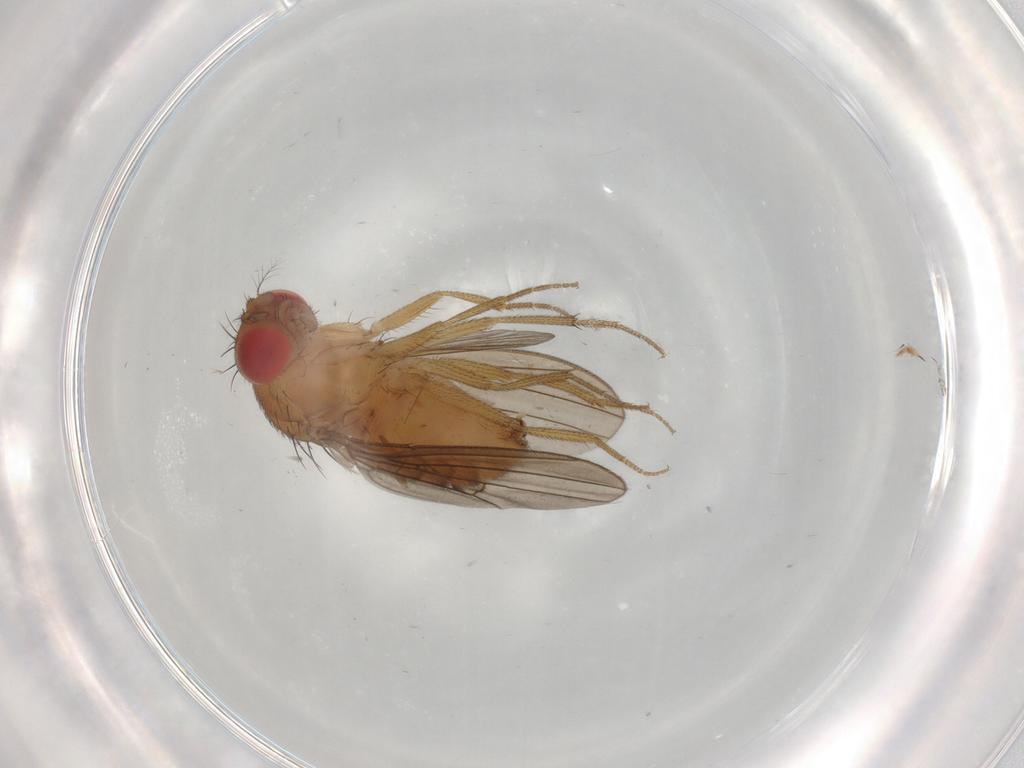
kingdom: Animalia
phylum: Arthropoda
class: Insecta
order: Diptera
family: Drosophilidae
